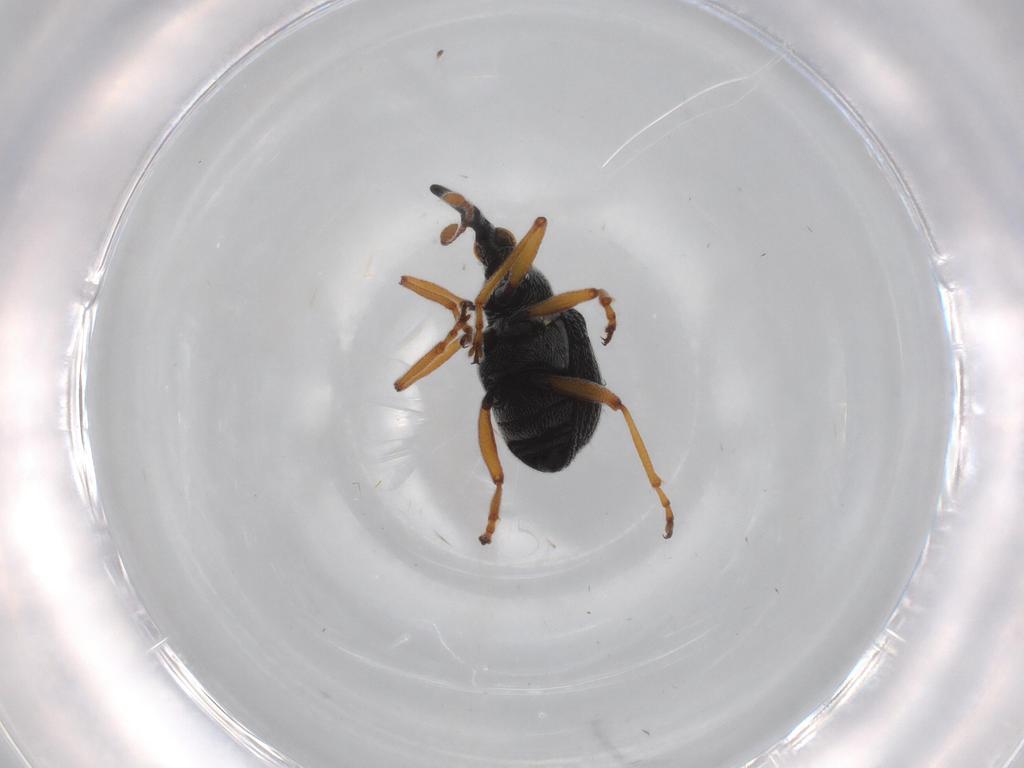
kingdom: Animalia
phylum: Arthropoda
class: Insecta
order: Coleoptera
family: Brentidae
